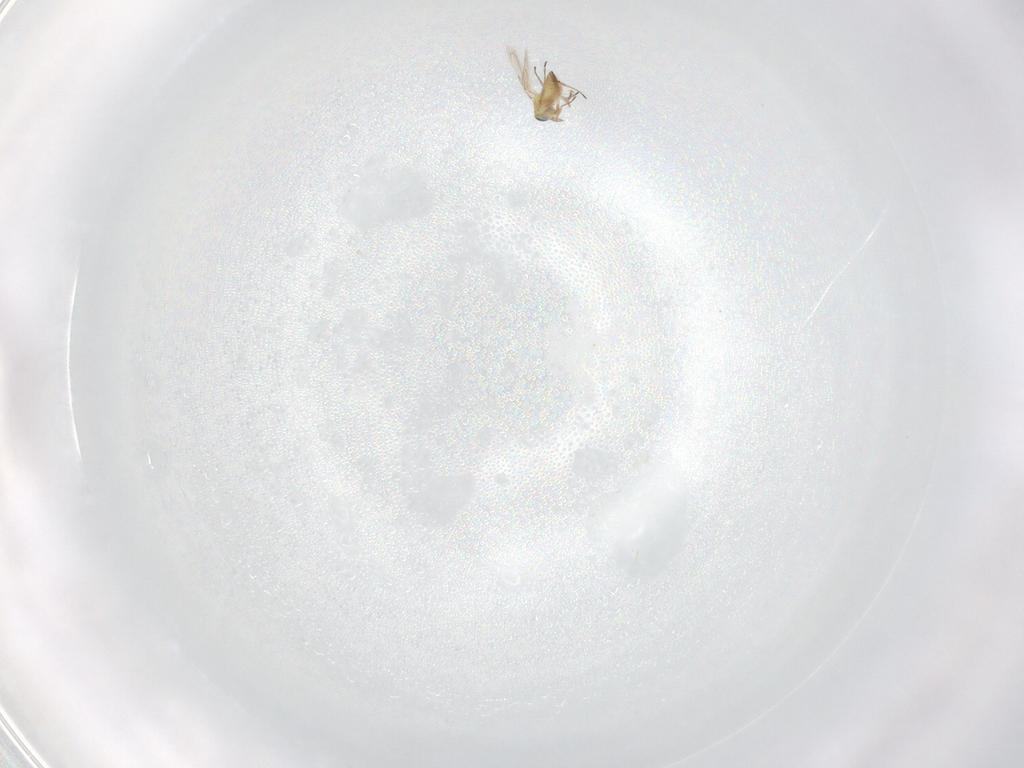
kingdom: Animalia
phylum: Arthropoda
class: Insecta
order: Hymenoptera
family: Trichogrammatidae
